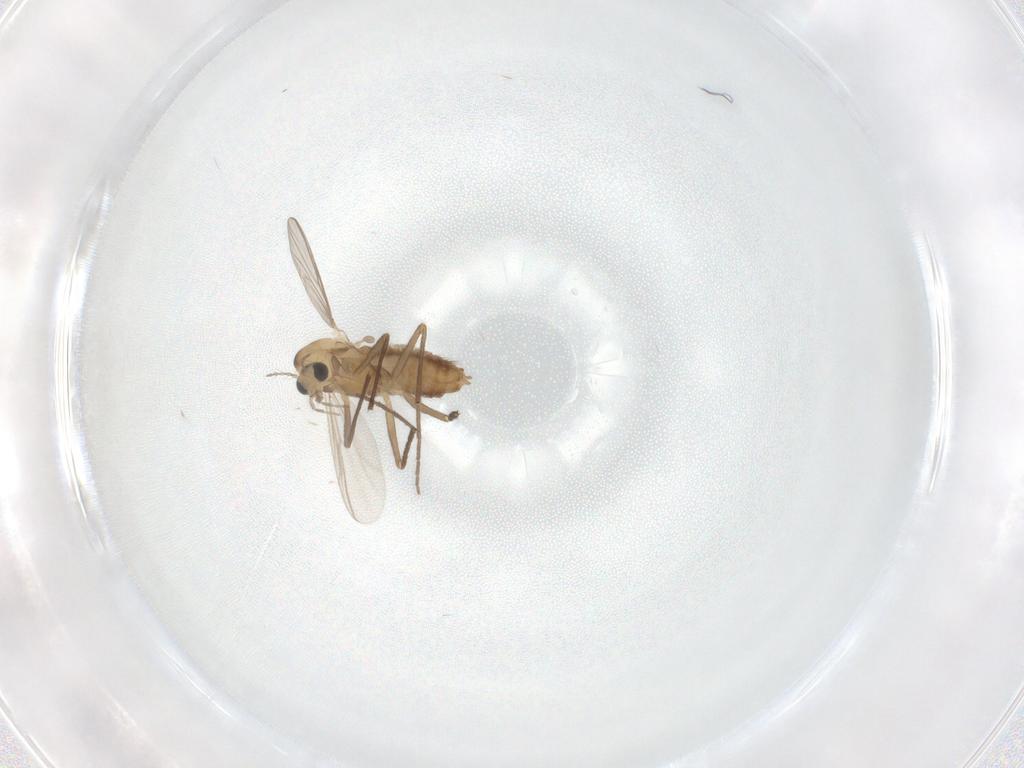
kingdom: Animalia
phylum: Arthropoda
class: Insecta
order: Diptera
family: Chironomidae
